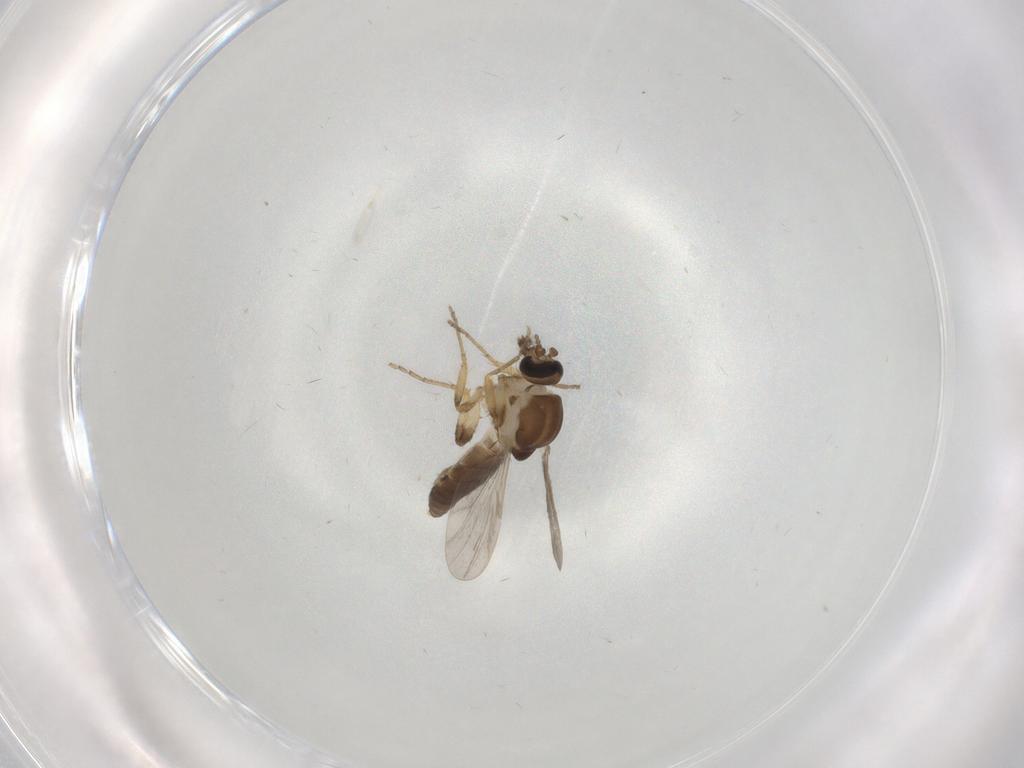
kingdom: Animalia
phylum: Arthropoda
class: Insecta
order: Diptera
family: Ceratopogonidae
